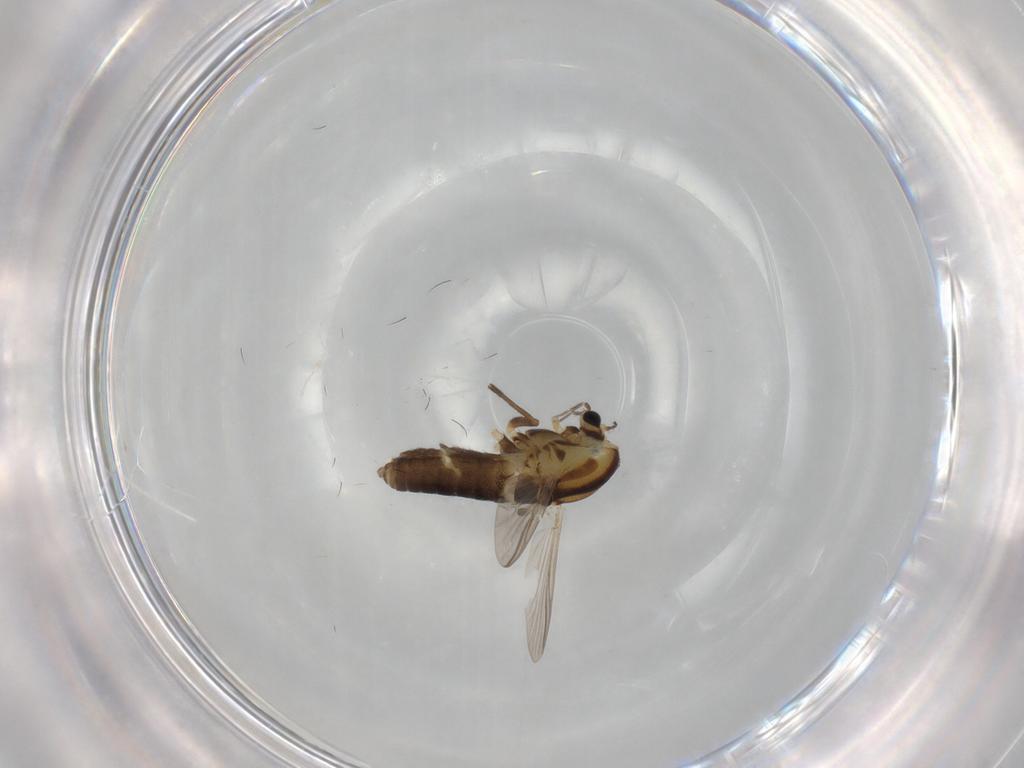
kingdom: Animalia
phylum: Arthropoda
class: Insecta
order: Diptera
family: Chironomidae
